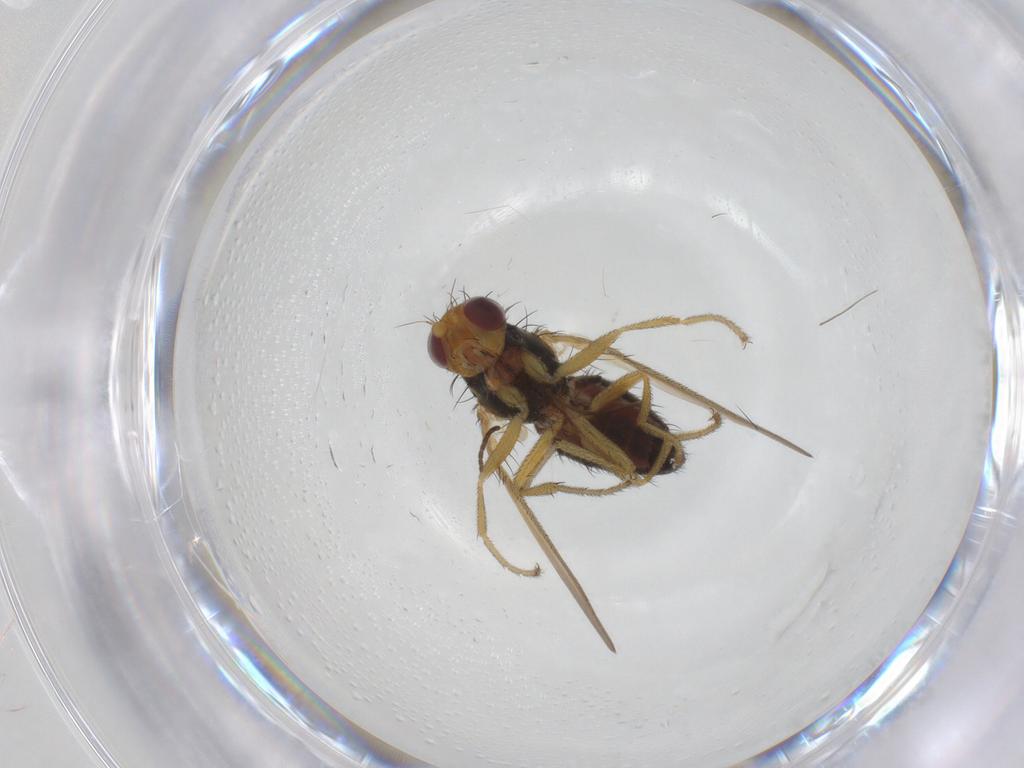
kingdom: Animalia
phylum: Arthropoda
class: Insecta
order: Diptera
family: Heleomyzidae
